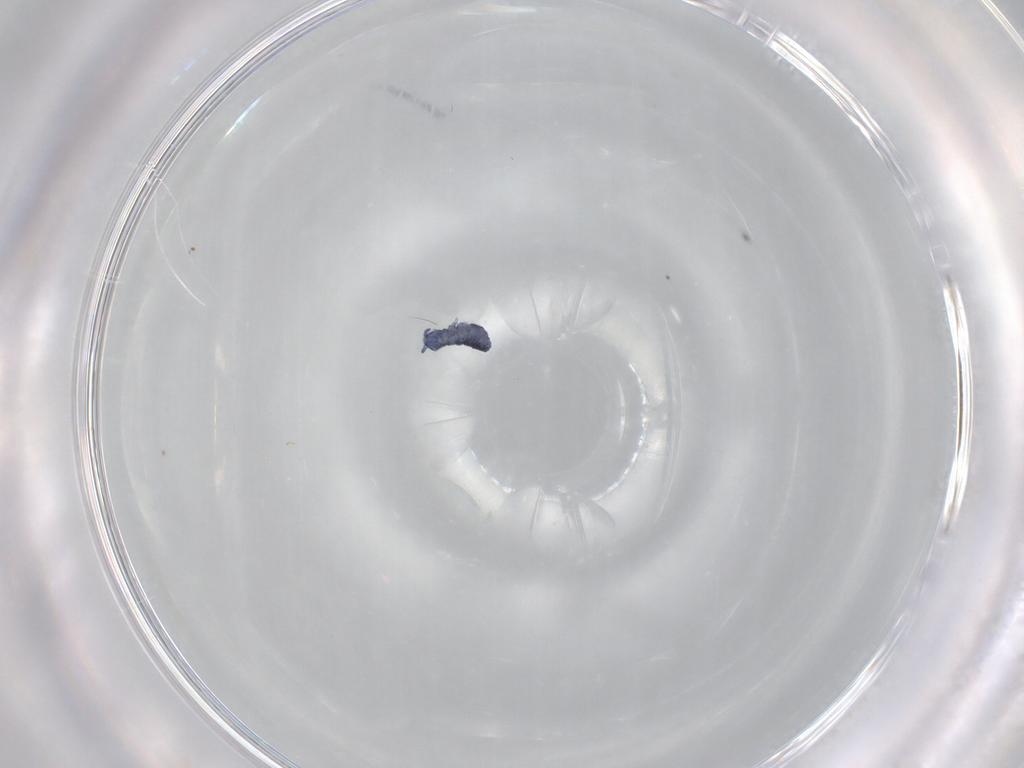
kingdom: Animalia
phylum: Arthropoda
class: Collembola
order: Poduromorpha
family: Hypogastruridae
